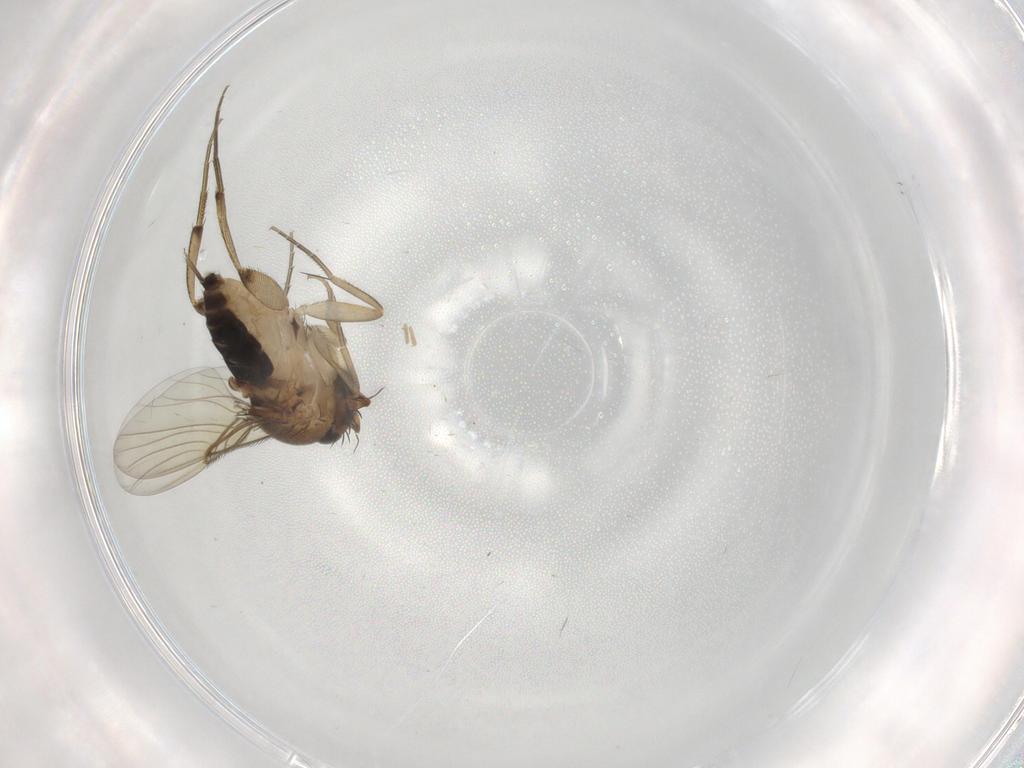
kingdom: Animalia
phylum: Arthropoda
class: Insecta
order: Diptera
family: Cecidomyiidae
